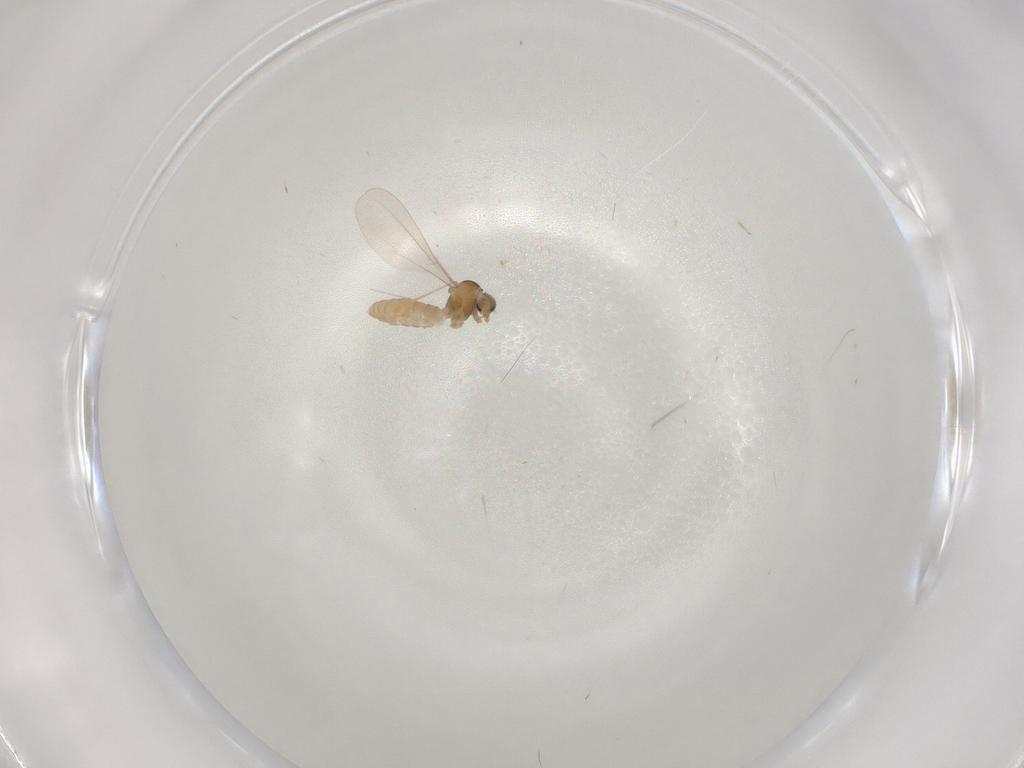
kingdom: Animalia
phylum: Arthropoda
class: Insecta
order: Diptera
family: Cecidomyiidae
